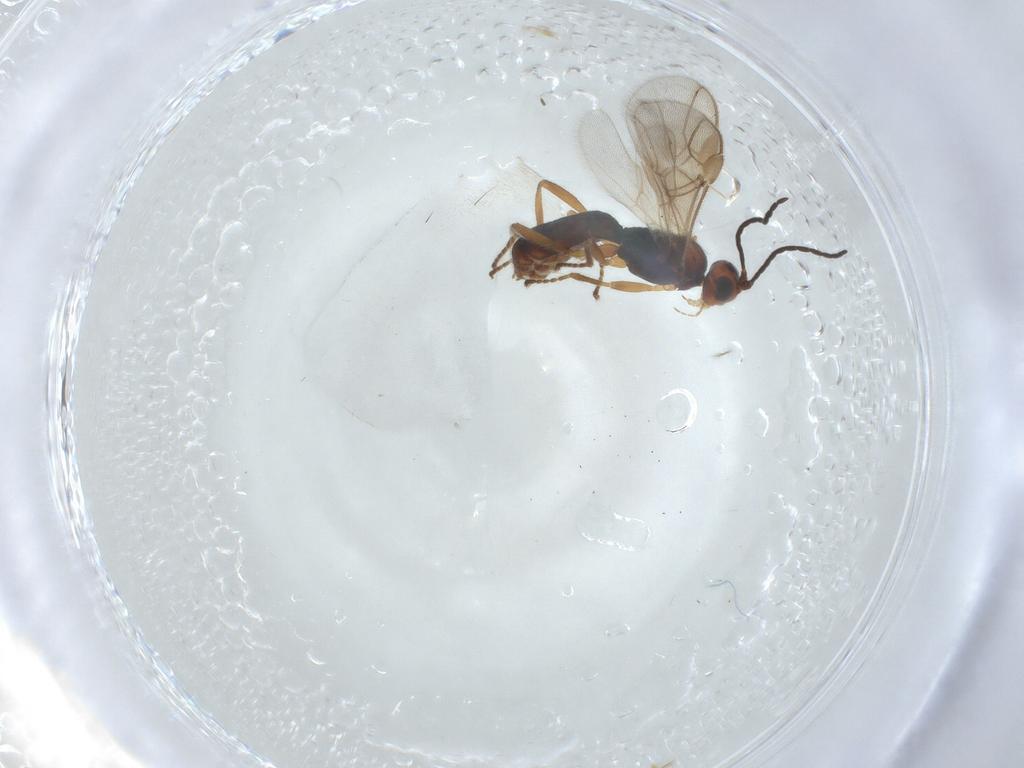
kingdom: Animalia
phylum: Arthropoda
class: Insecta
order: Hymenoptera
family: Braconidae
